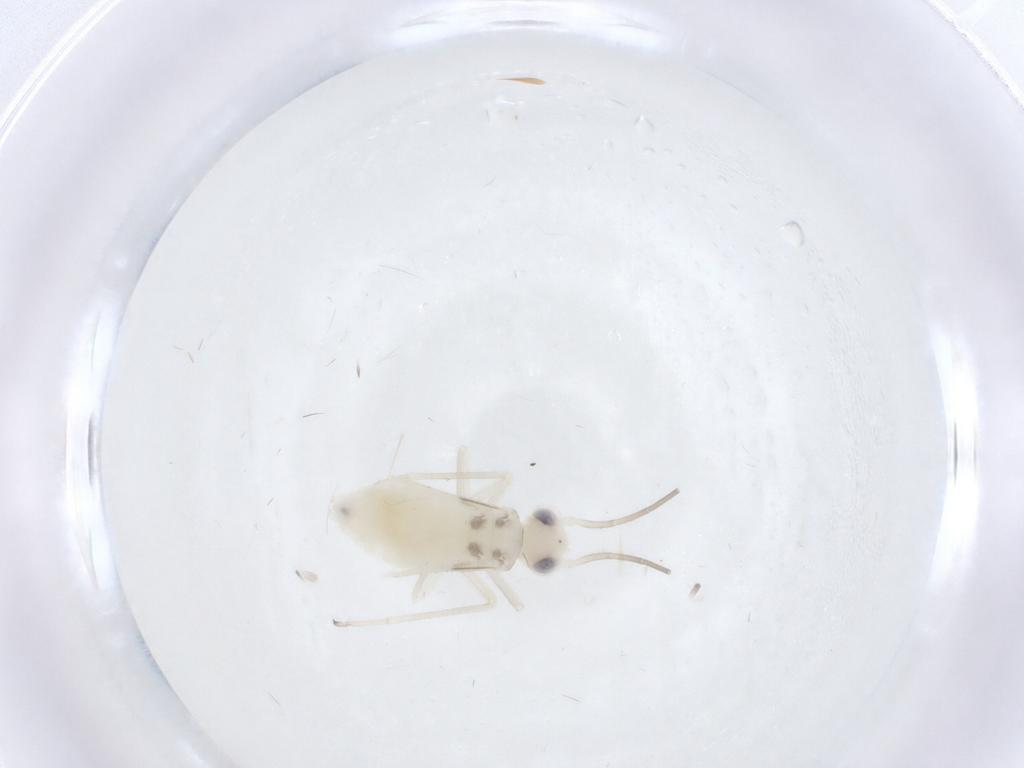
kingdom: Animalia
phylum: Arthropoda
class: Insecta
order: Psocodea
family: Caeciliusidae
